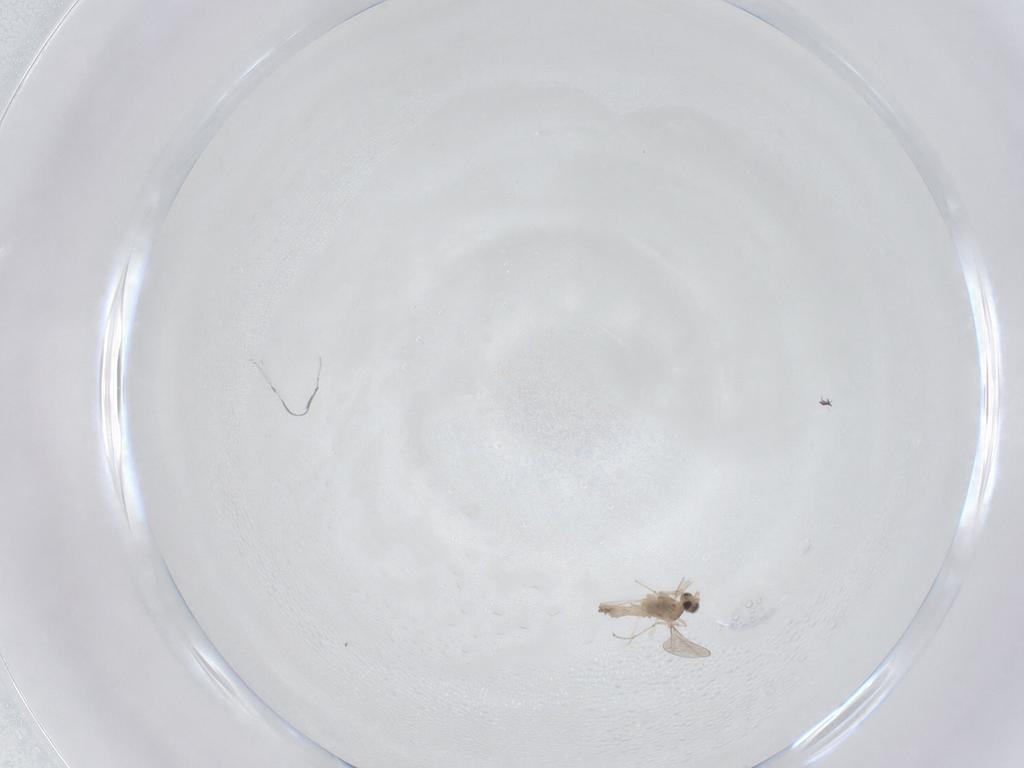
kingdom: Animalia
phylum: Arthropoda
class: Insecta
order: Diptera
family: Cecidomyiidae
